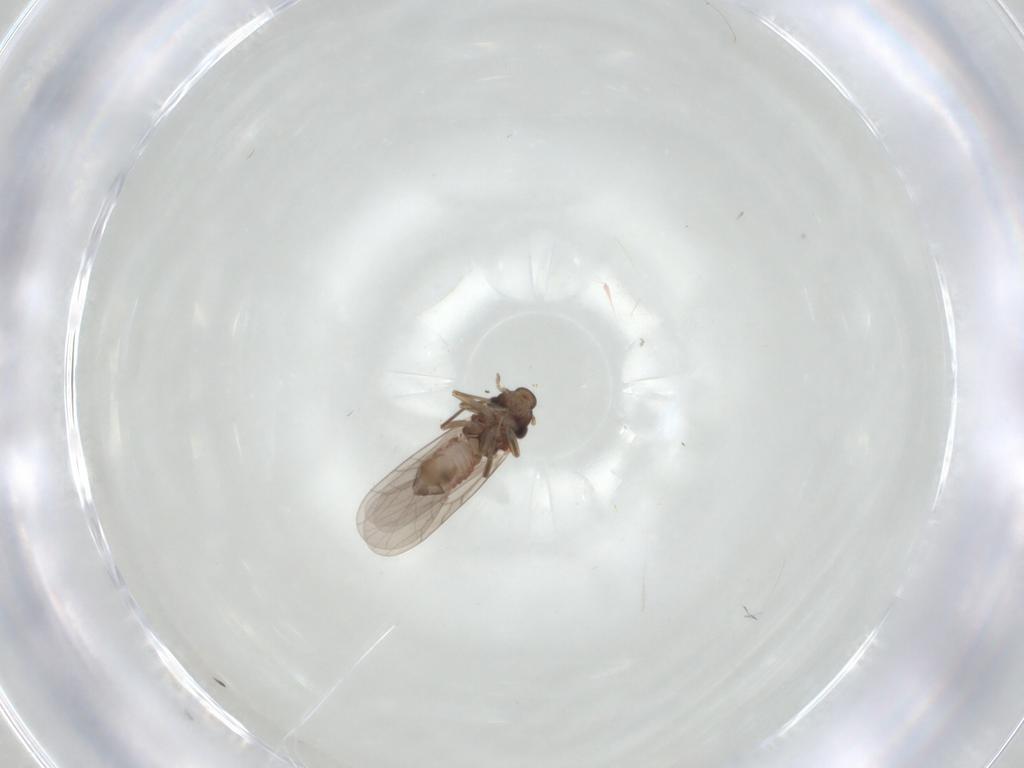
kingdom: Animalia
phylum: Arthropoda
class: Insecta
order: Psocodea
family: Lepidopsocidae
